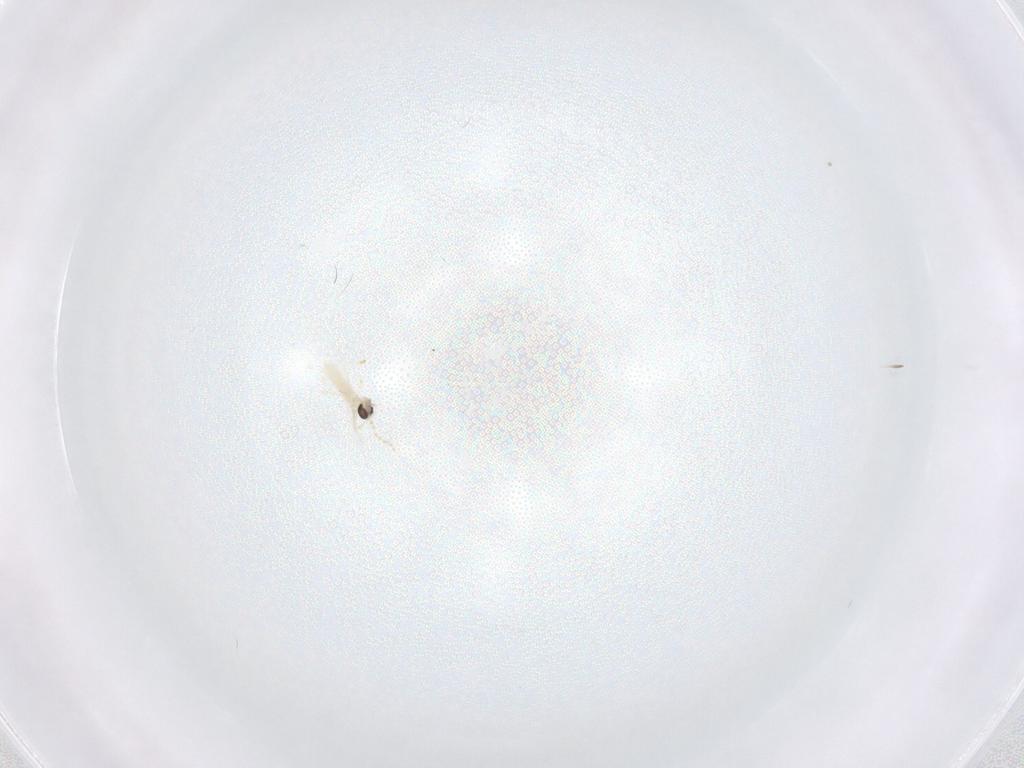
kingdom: Animalia
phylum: Arthropoda
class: Insecta
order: Diptera
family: Cecidomyiidae
